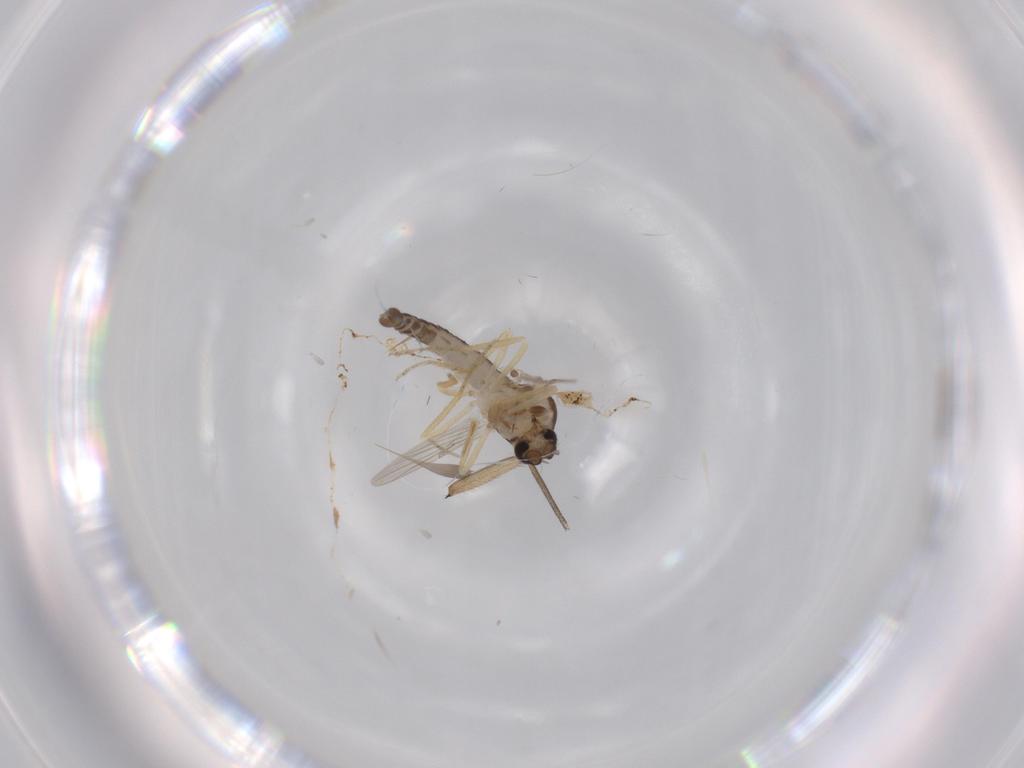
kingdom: Animalia
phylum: Arthropoda
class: Insecta
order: Diptera
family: Ceratopogonidae
